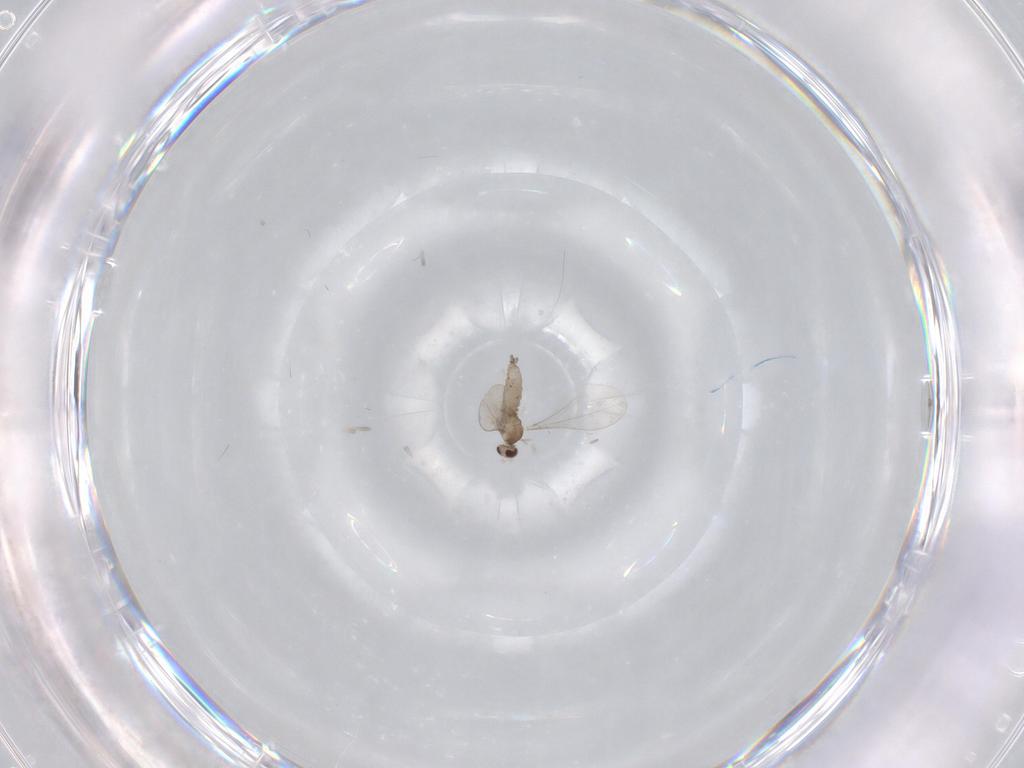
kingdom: Animalia
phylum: Arthropoda
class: Insecta
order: Diptera
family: Cecidomyiidae
